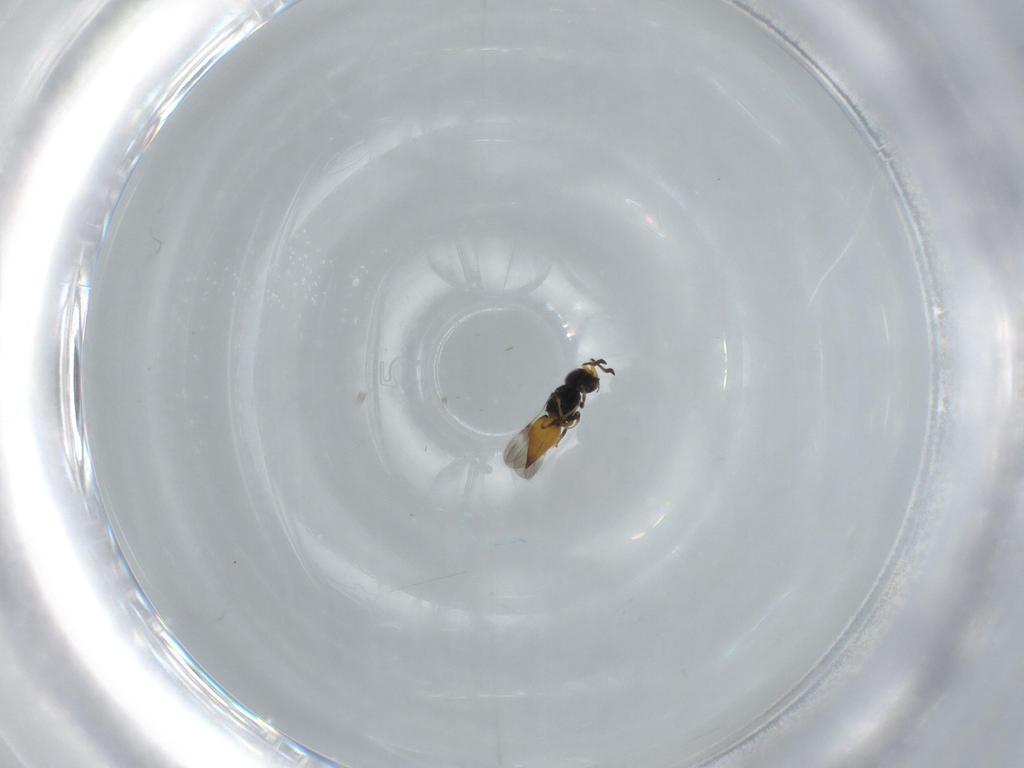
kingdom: Animalia
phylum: Arthropoda
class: Insecta
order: Hymenoptera
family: Ceraphronidae
